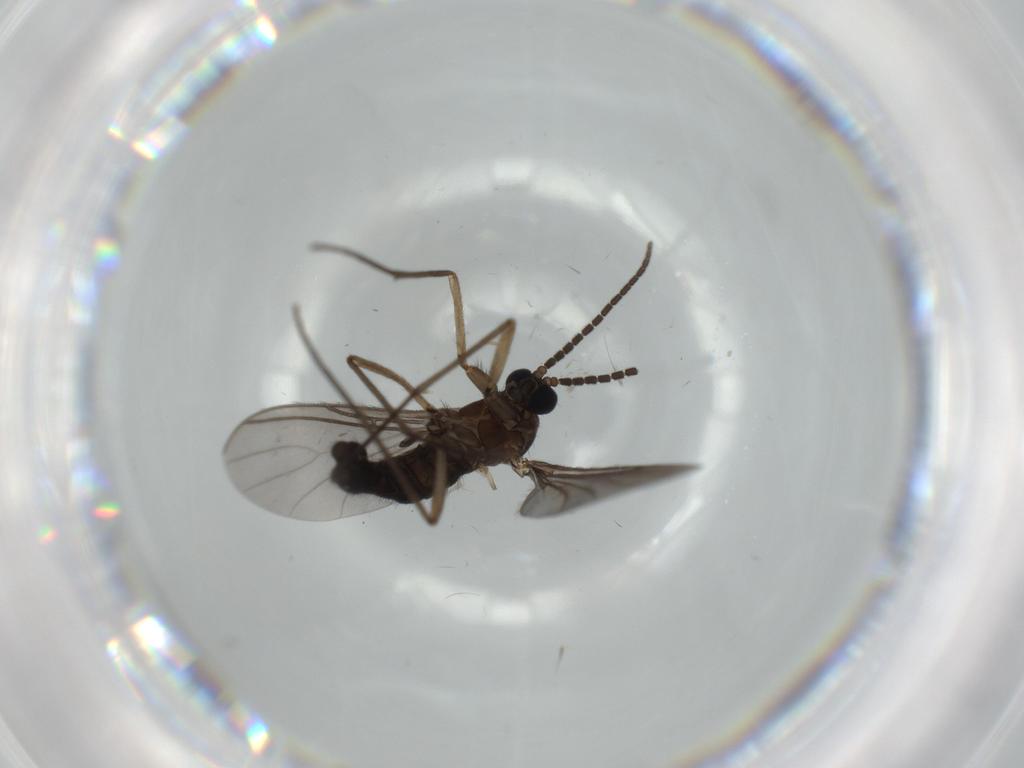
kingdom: Animalia
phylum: Arthropoda
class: Insecta
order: Diptera
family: Sciaridae
